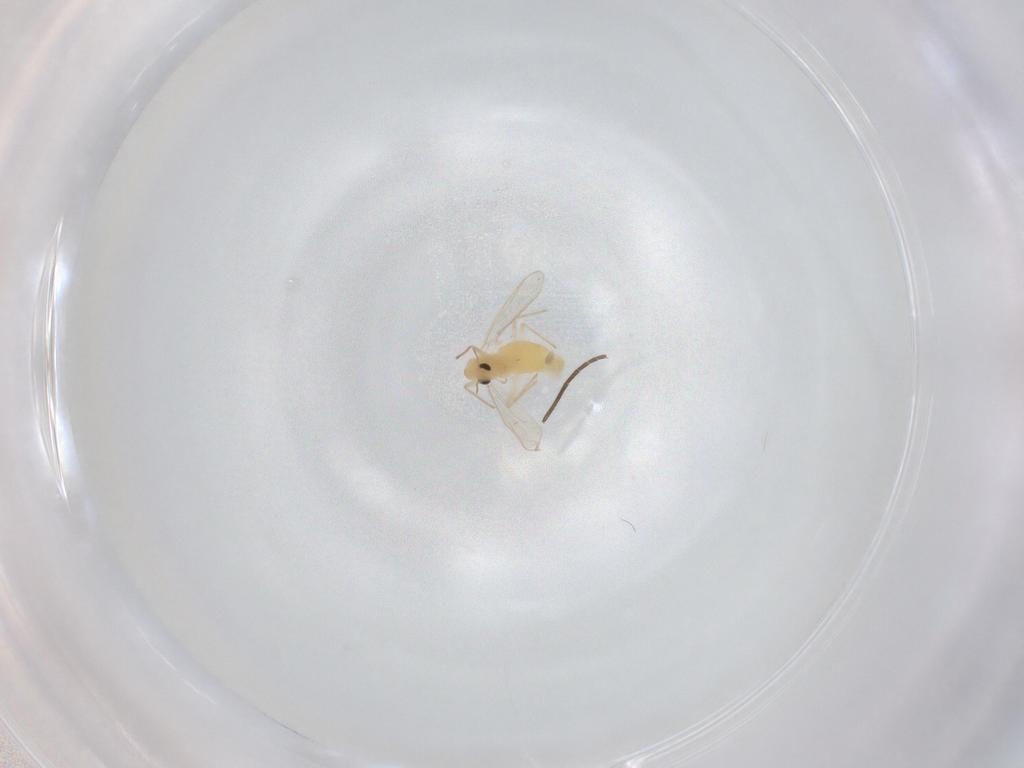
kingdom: Animalia
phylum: Arthropoda
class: Insecta
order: Diptera
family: Chironomidae
